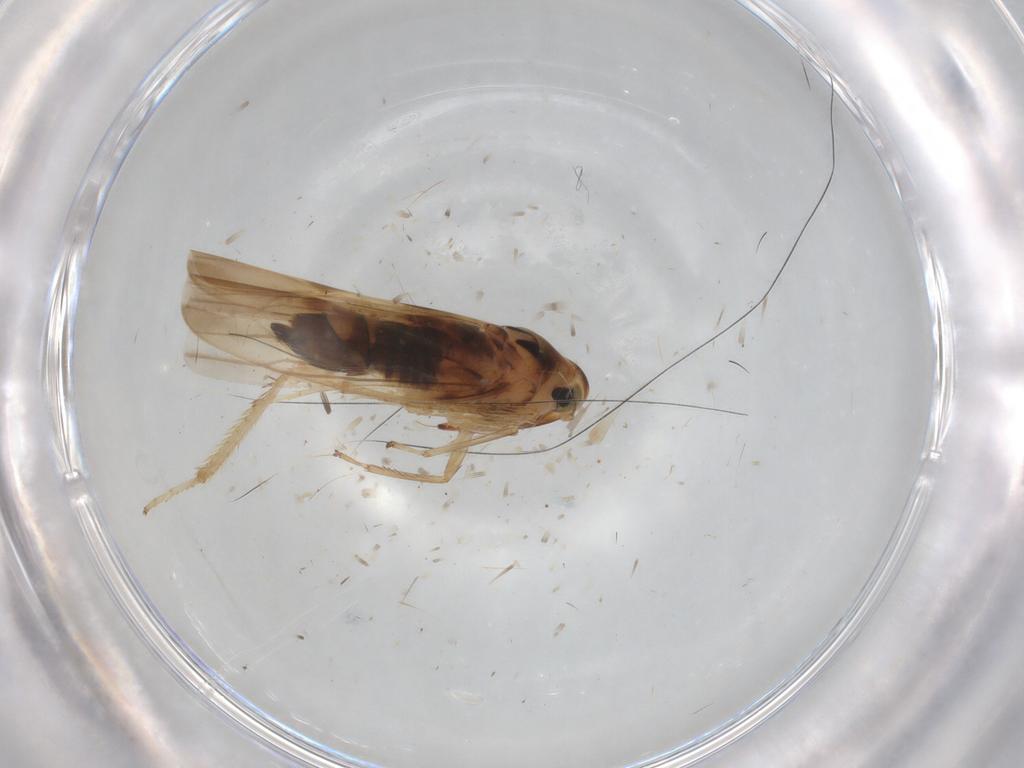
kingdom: Animalia
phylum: Arthropoda
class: Insecta
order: Hemiptera
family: Cicadellidae
